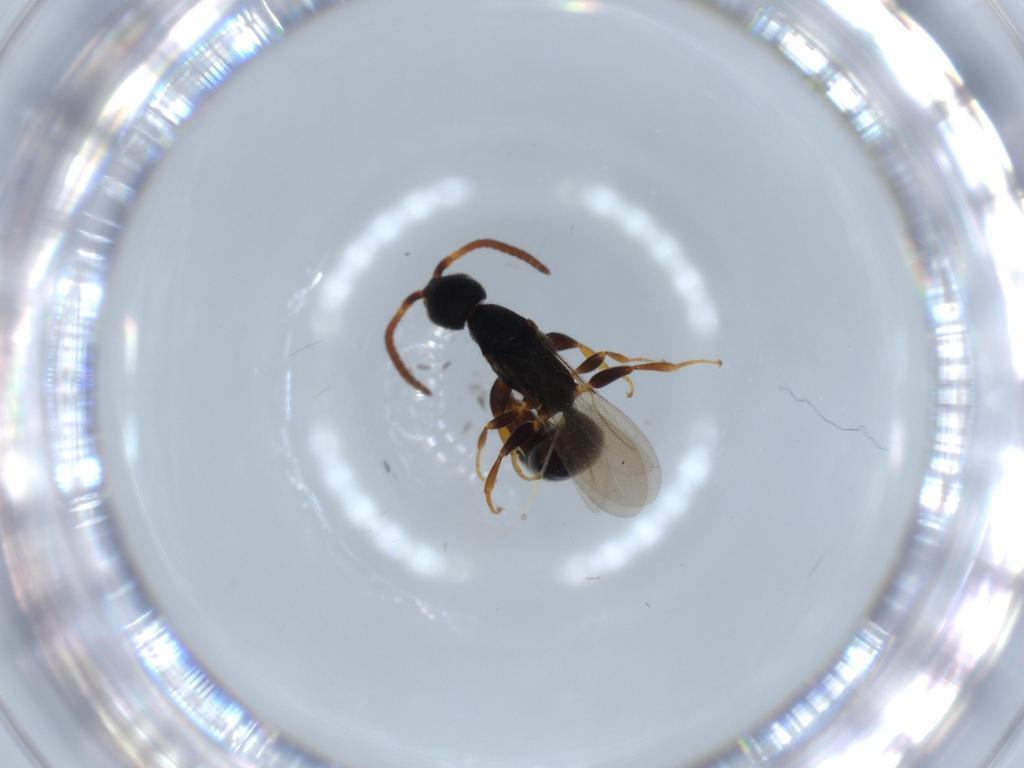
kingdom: Animalia
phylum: Arthropoda
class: Insecta
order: Hymenoptera
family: Bethylidae
